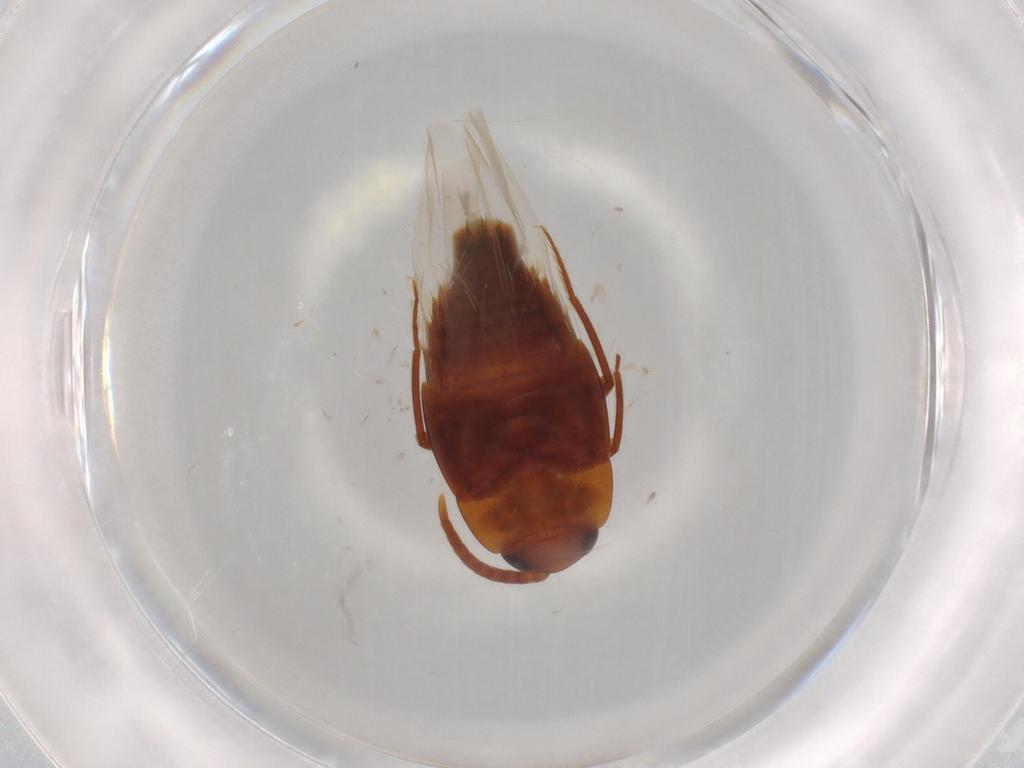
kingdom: Animalia
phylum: Arthropoda
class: Insecta
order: Coleoptera
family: Staphylinidae
